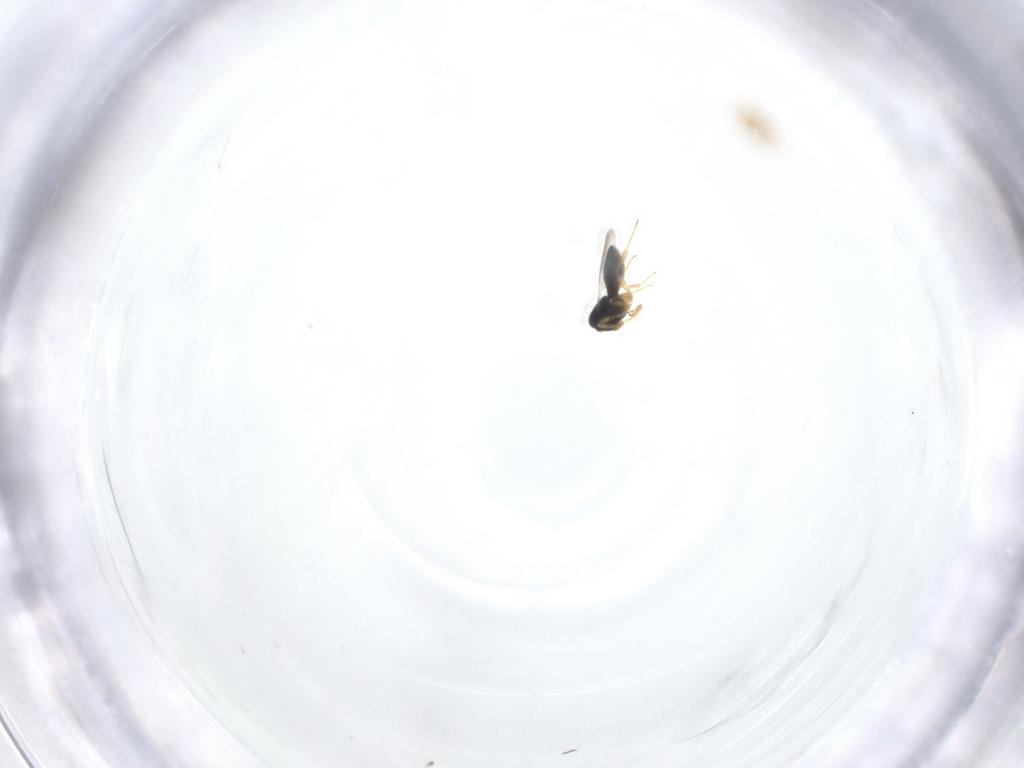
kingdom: Animalia
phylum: Arthropoda
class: Insecta
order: Hymenoptera
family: Scelionidae
